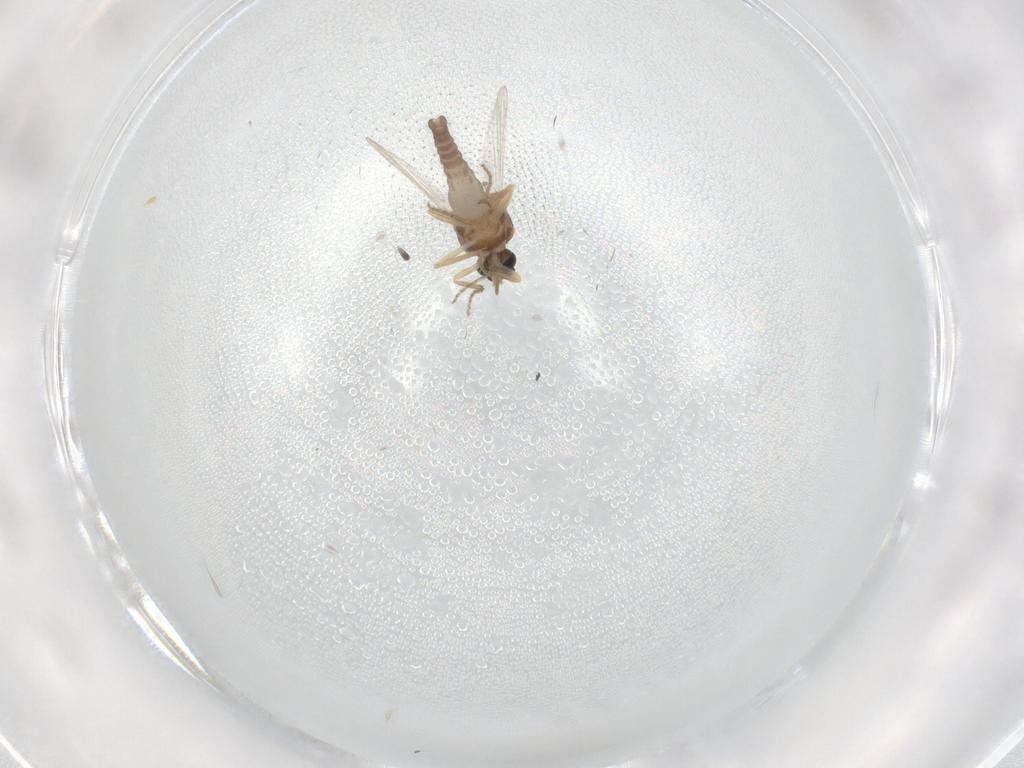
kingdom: Animalia
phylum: Arthropoda
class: Insecta
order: Diptera
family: Ceratopogonidae
